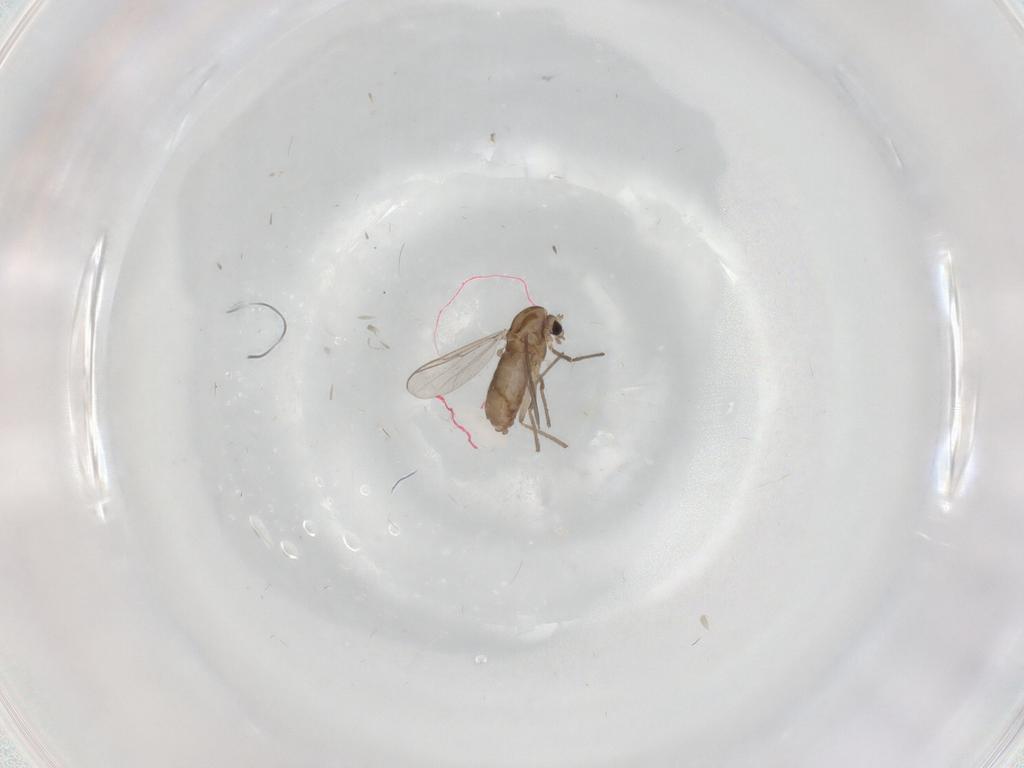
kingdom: Animalia
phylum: Arthropoda
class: Insecta
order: Diptera
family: Chironomidae
